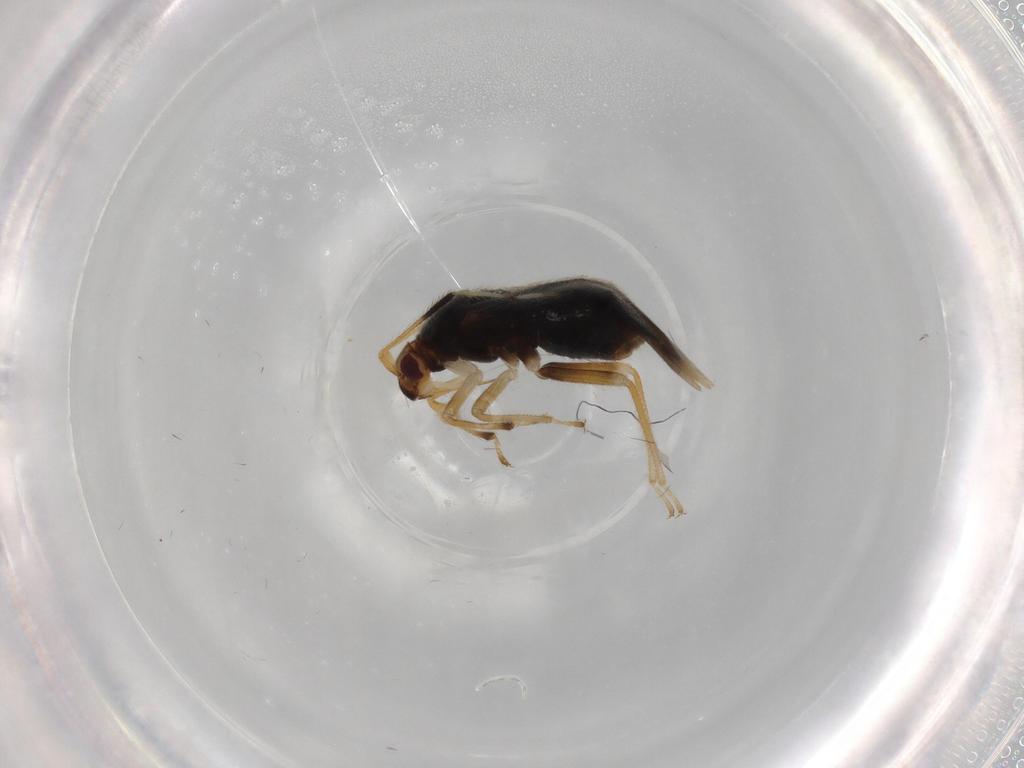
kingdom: Animalia
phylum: Arthropoda
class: Insecta
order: Hemiptera
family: Miridae
